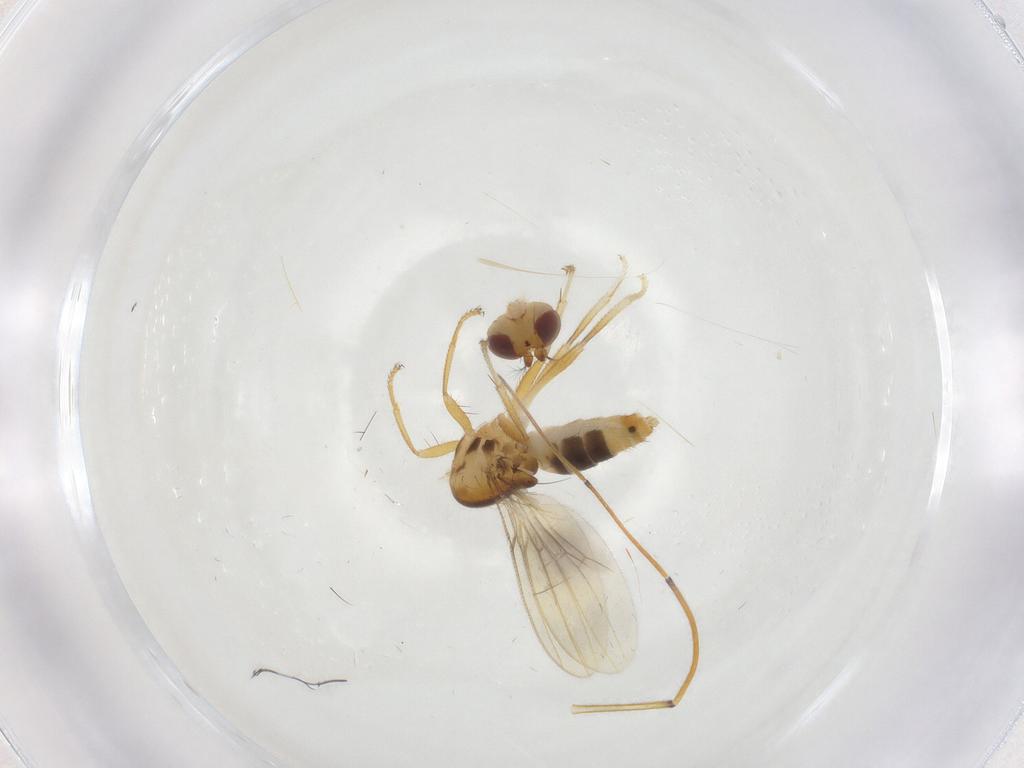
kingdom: Animalia
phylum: Arthropoda
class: Insecta
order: Diptera
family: Periscelididae
